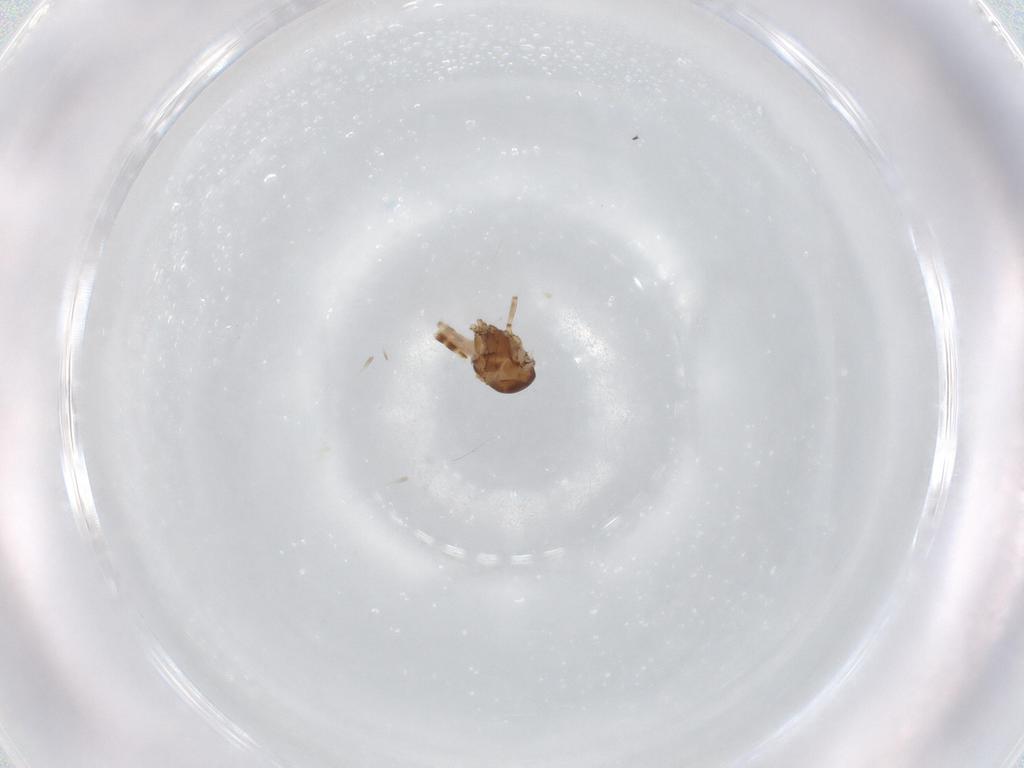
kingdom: Animalia
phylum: Arthropoda
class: Insecta
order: Diptera
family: Ceratopogonidae
